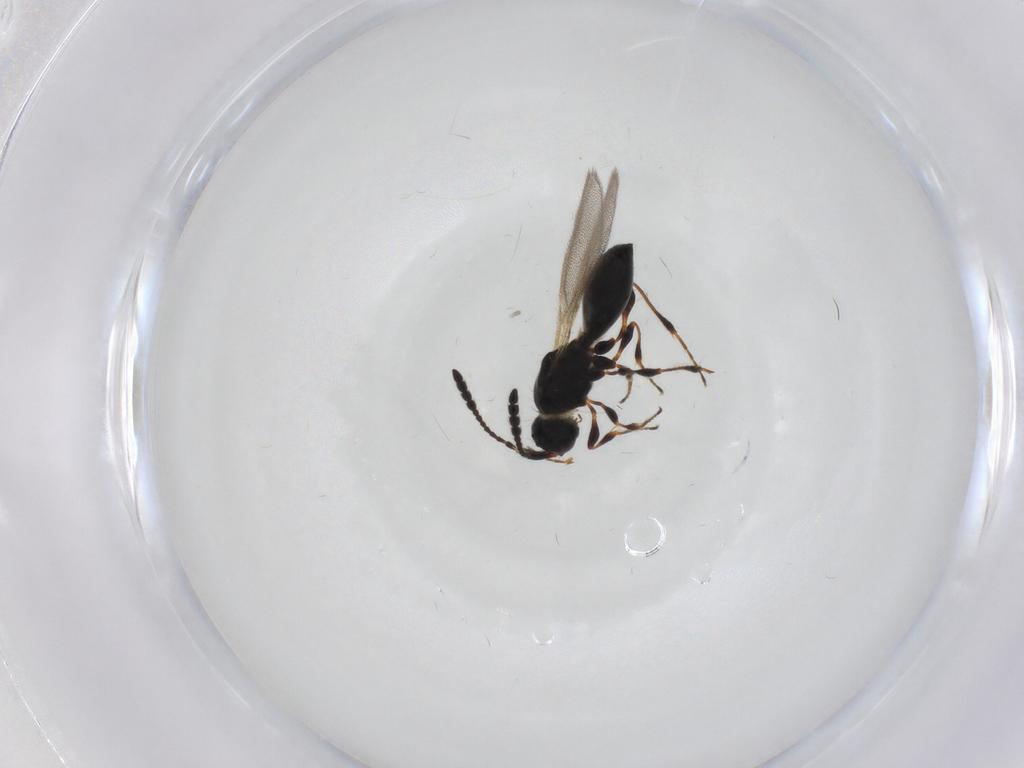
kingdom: Animalia
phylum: Arthropoda
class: Insecta
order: Hymenoptera
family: Diapriidae
